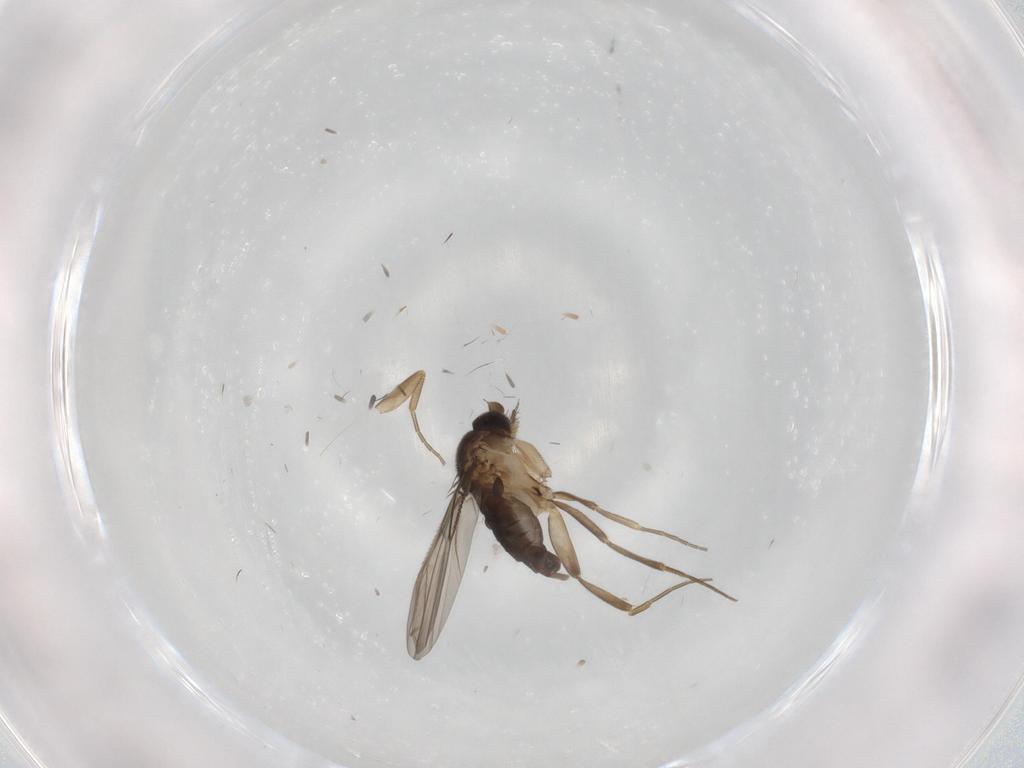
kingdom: Animalia
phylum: Arthropoda
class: Insecta
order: Diptera
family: Phoridae
